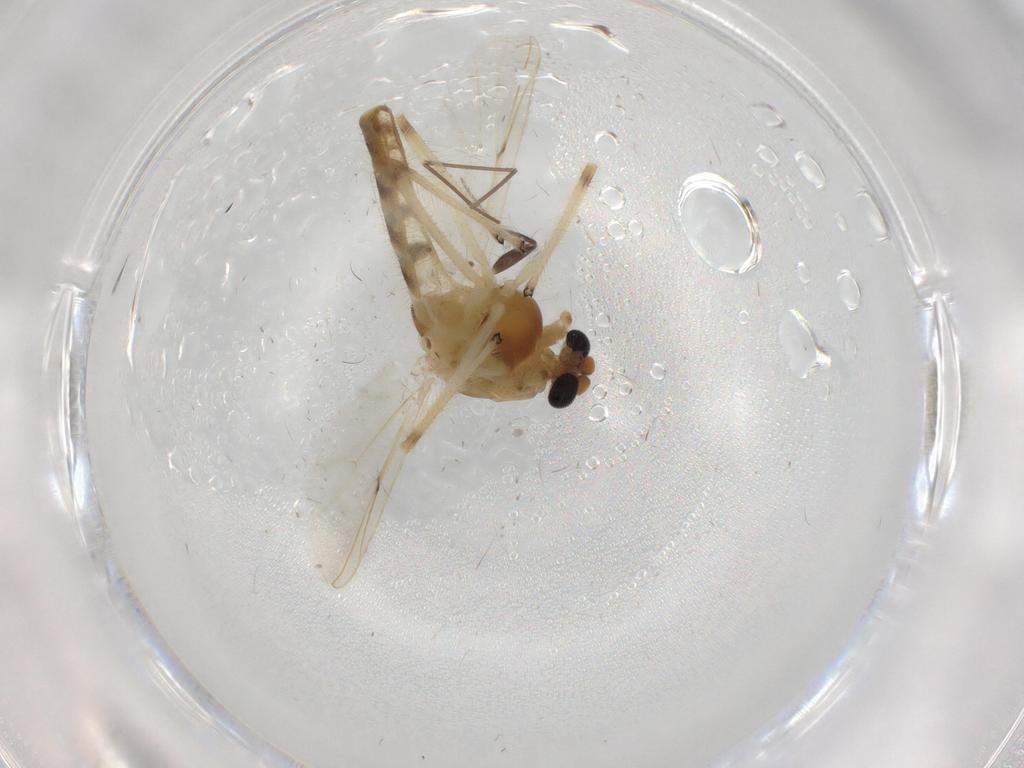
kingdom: Animalia
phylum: Arthropoda
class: Insecta
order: Diptera
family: Chironomidae
